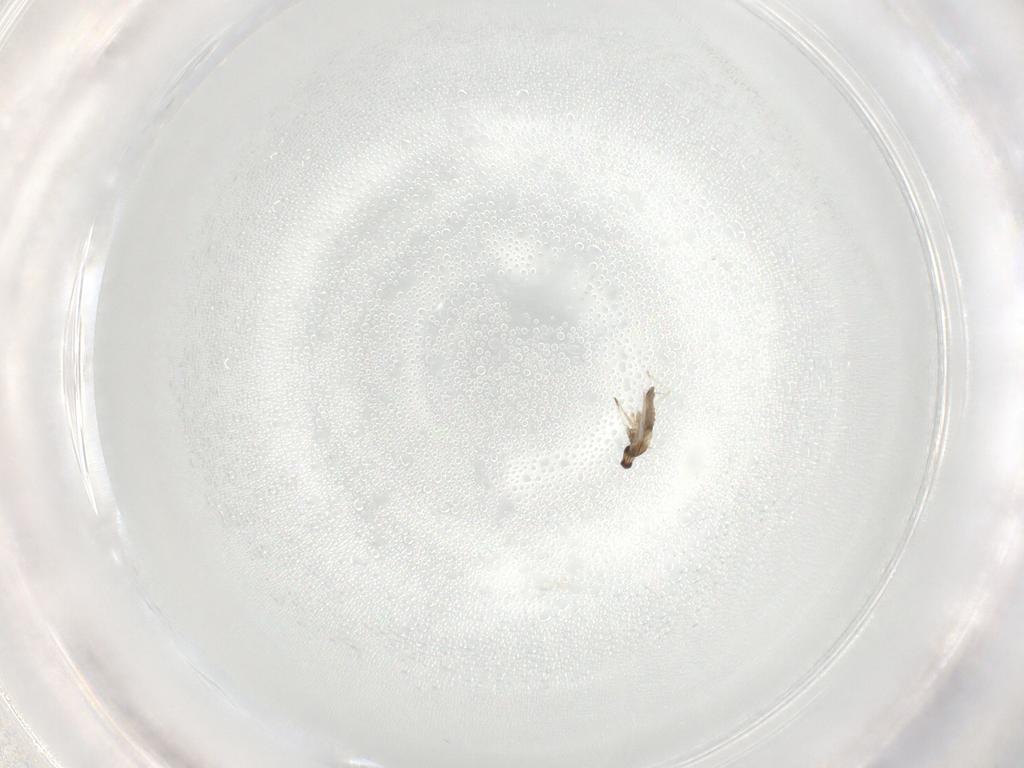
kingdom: Animalia
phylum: Arthropoda
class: Insecta
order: Diptera
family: Cecidomyiidae
